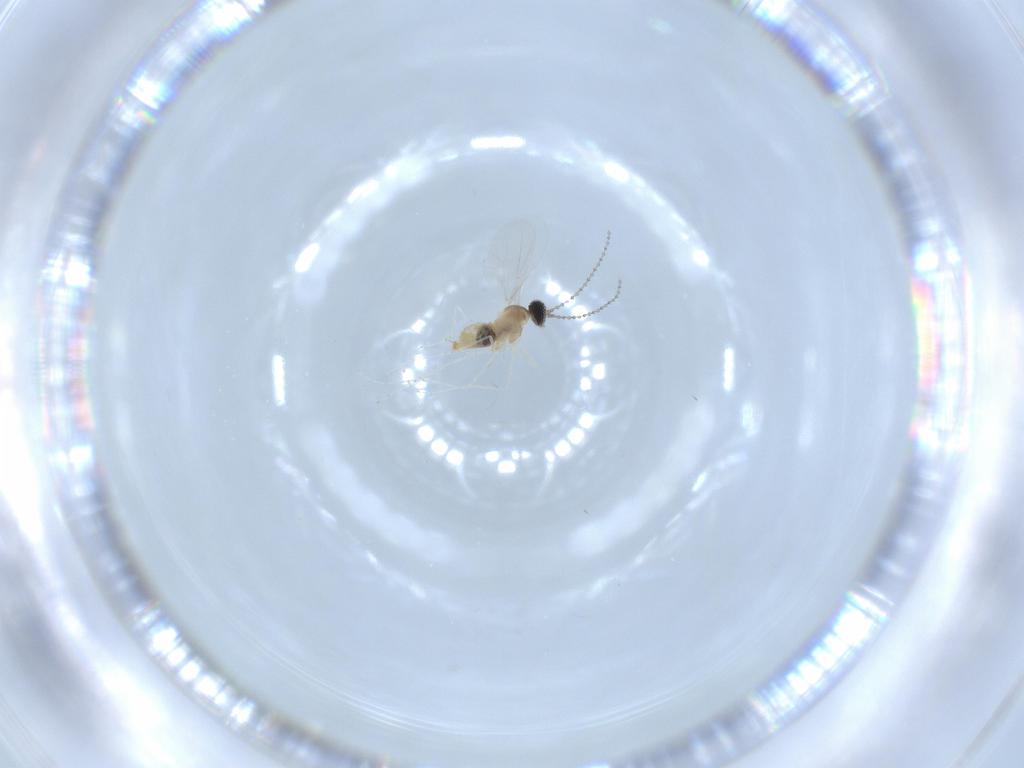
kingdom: Animalia
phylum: Arthropoda
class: Insecta
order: Diptera
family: Cecidomyiidae
